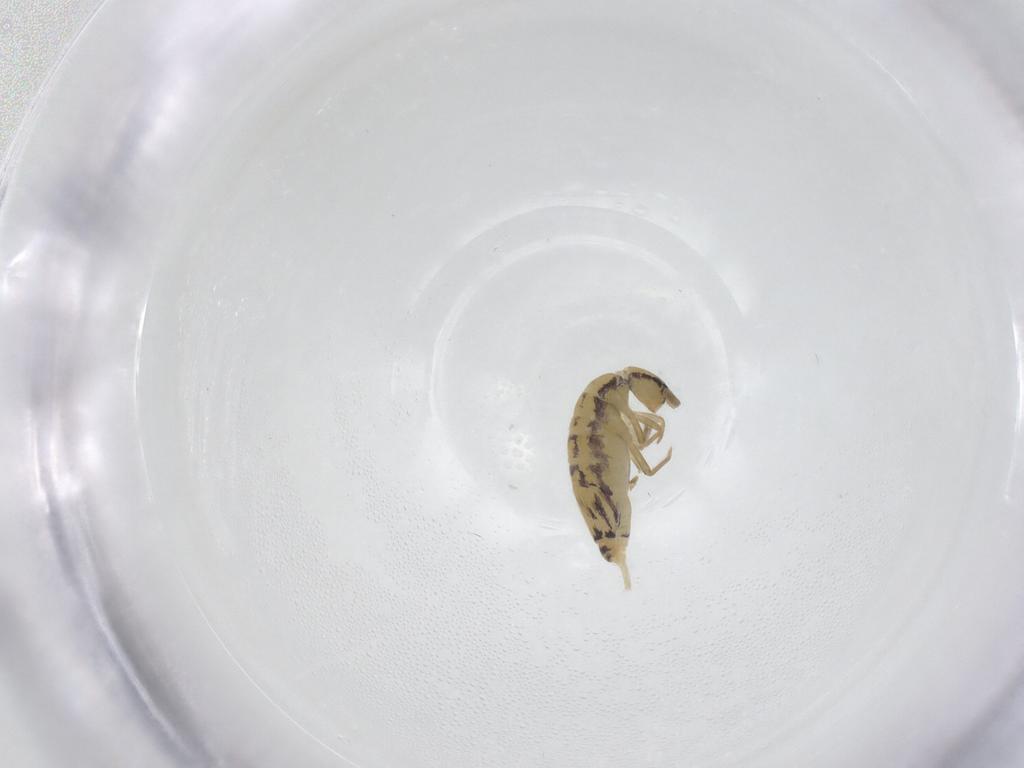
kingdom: Animalia
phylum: Arthropoda
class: Collembola
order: Entomobryomorpha
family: Entomobryidae
